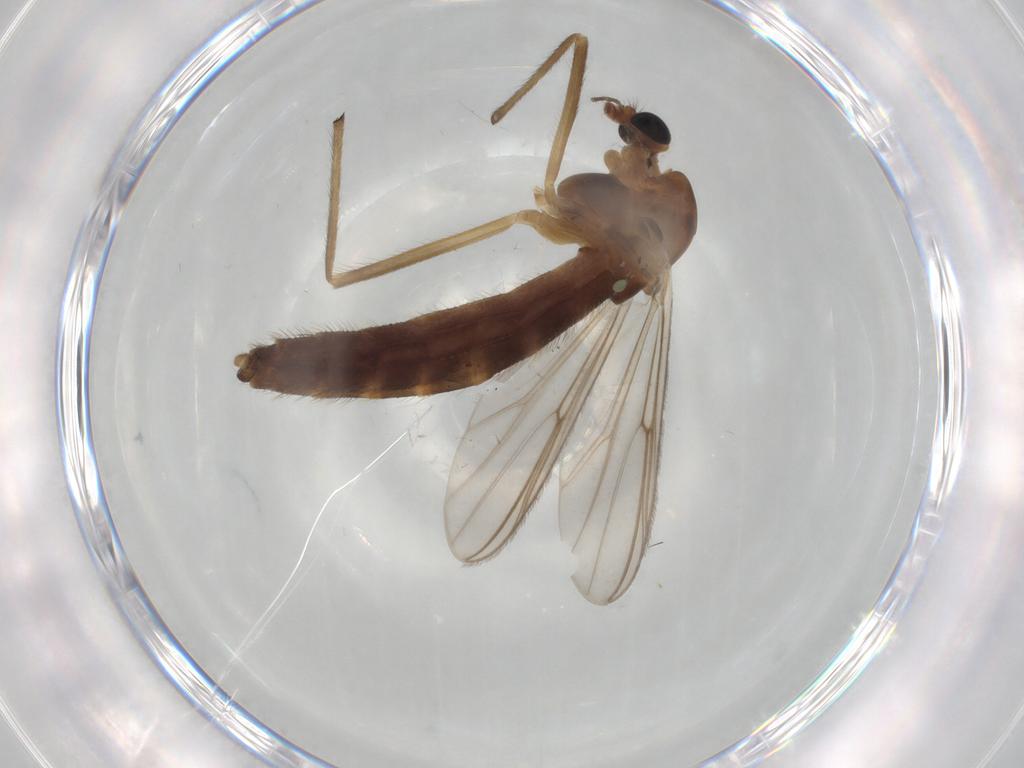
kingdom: Animalia
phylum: Arthropoda
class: Insecta
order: Diptera
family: Chironomidae
